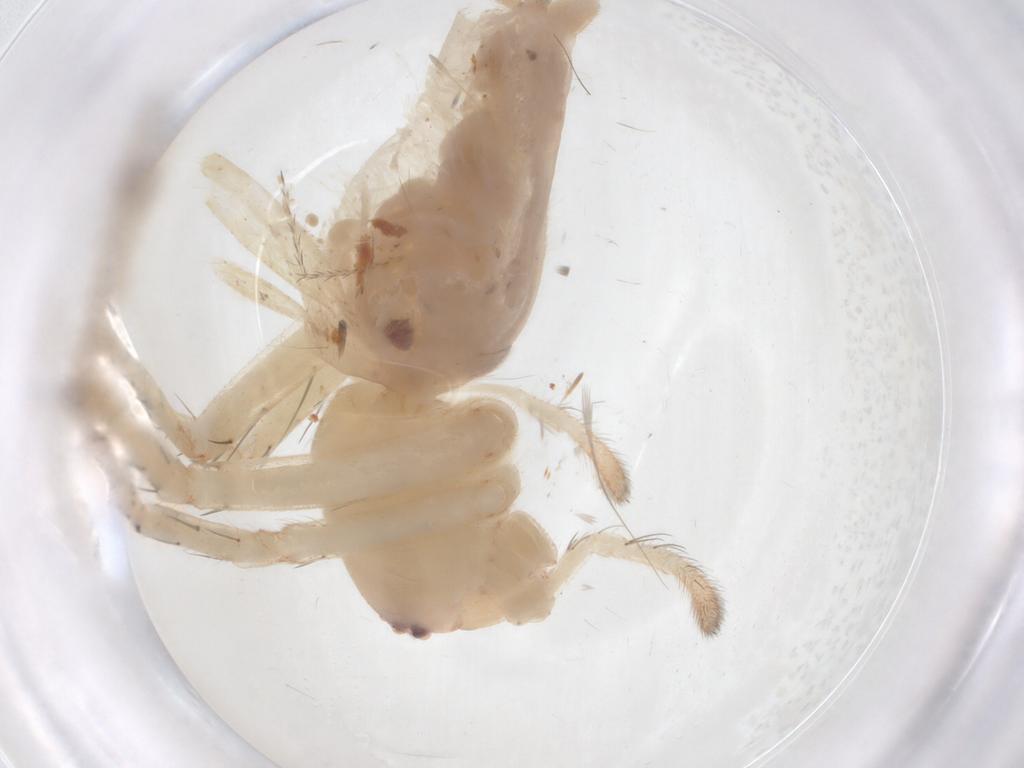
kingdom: Animalia
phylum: Arthropoda
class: Arachnida
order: Araneae
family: Anyphaenidae
